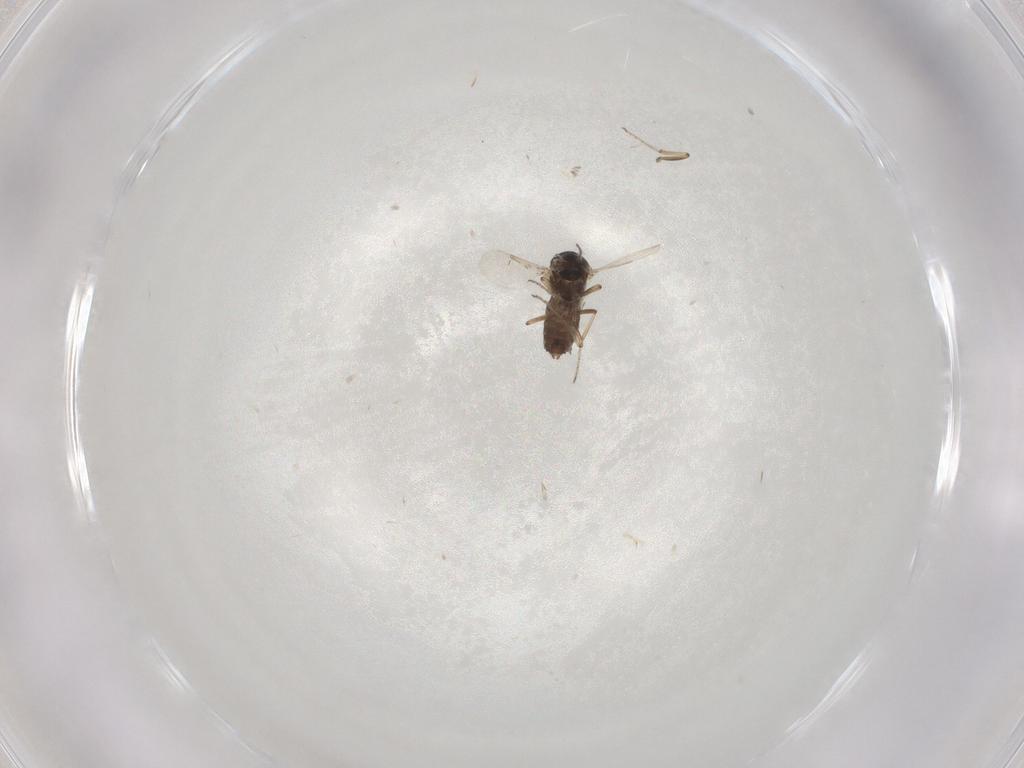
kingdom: Animalia
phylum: Arthropoda
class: Insecta
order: Diptera
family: Ceratopogonidae
